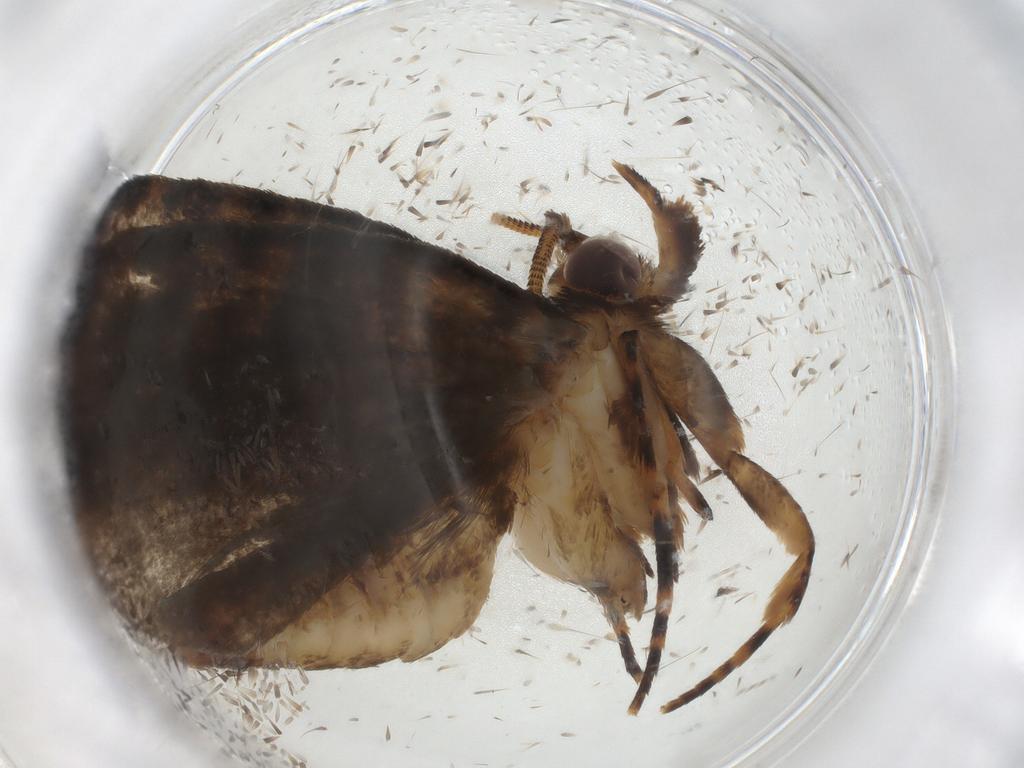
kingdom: Animalia
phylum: Arthropoda
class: Insecta
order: Lepidoptera
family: Tineidae
